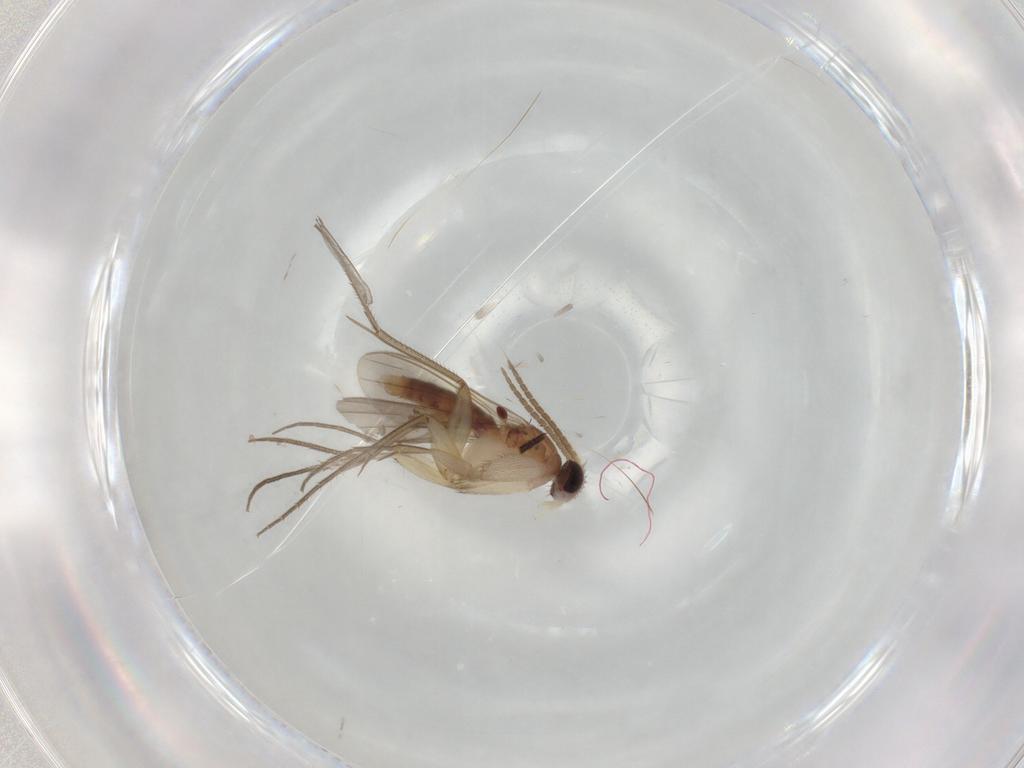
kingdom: Animalia
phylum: Arthropoda
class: Insecta
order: Diptera
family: Mycetophilidae
